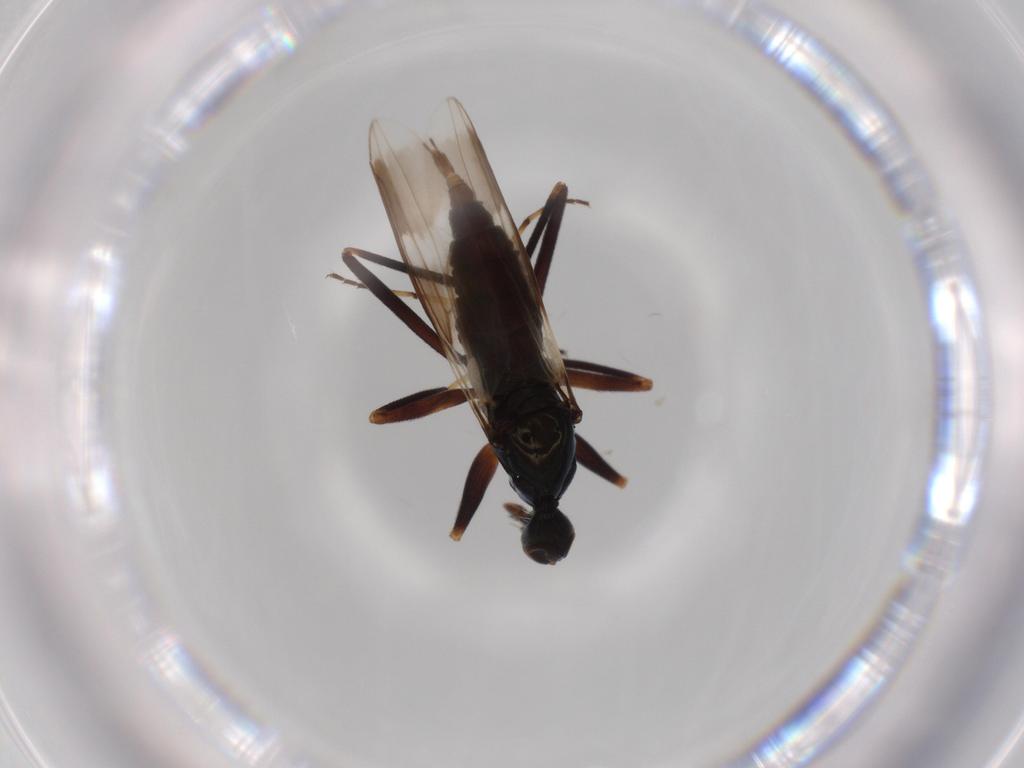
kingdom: Animalia
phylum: Arthropoda
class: Insecta
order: Diptera
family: Hybotidae
